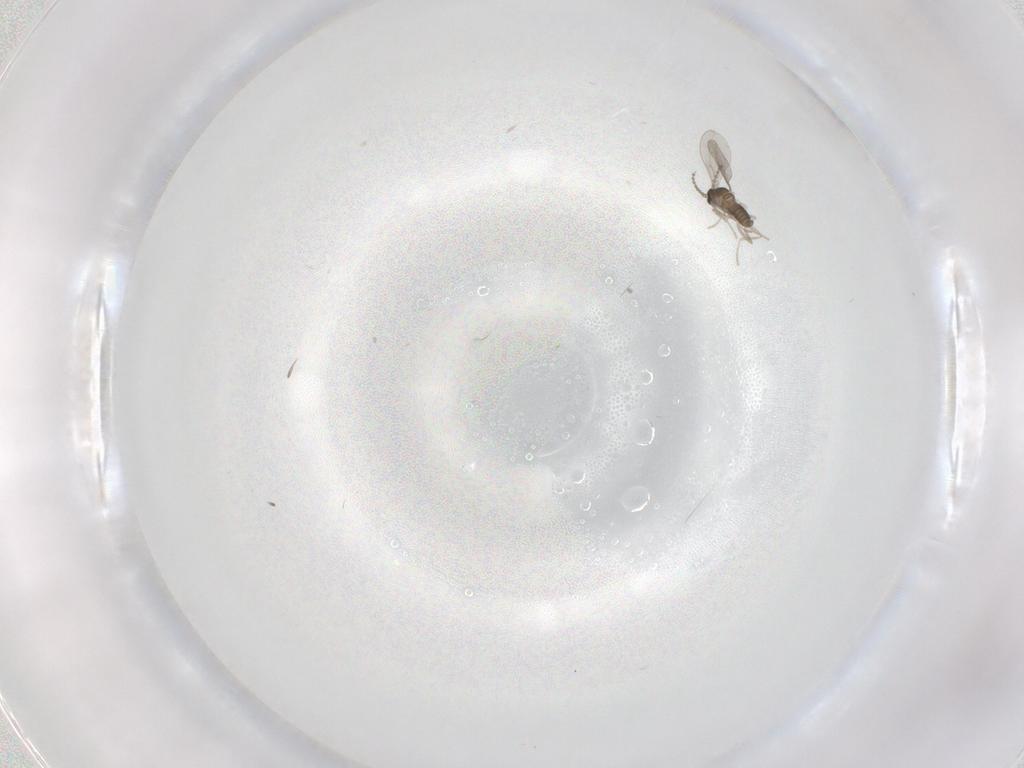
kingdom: Animalia
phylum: Arthropoda
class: Insecta
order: Diptera
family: Cecidomyiidae
